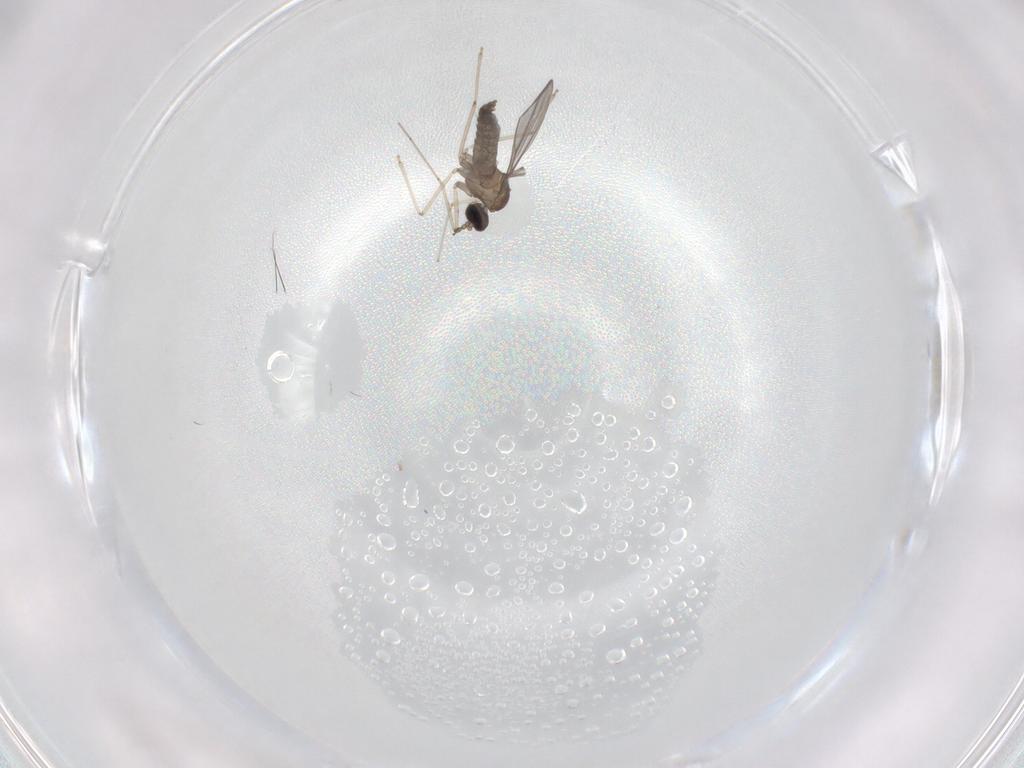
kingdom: Animalia
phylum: Arthropoda
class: Insecta
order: Diptera
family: Cecidomyiidae
